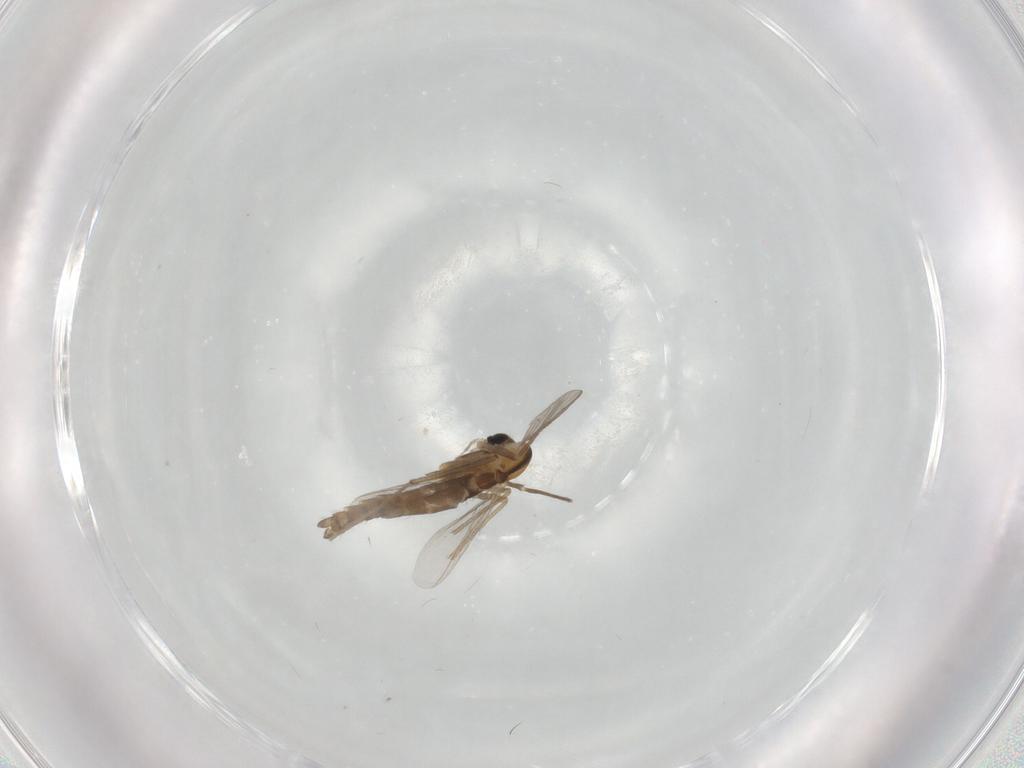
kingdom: Animalia
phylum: Arthropoda
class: Insecta
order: Diptera
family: Chironomidae
